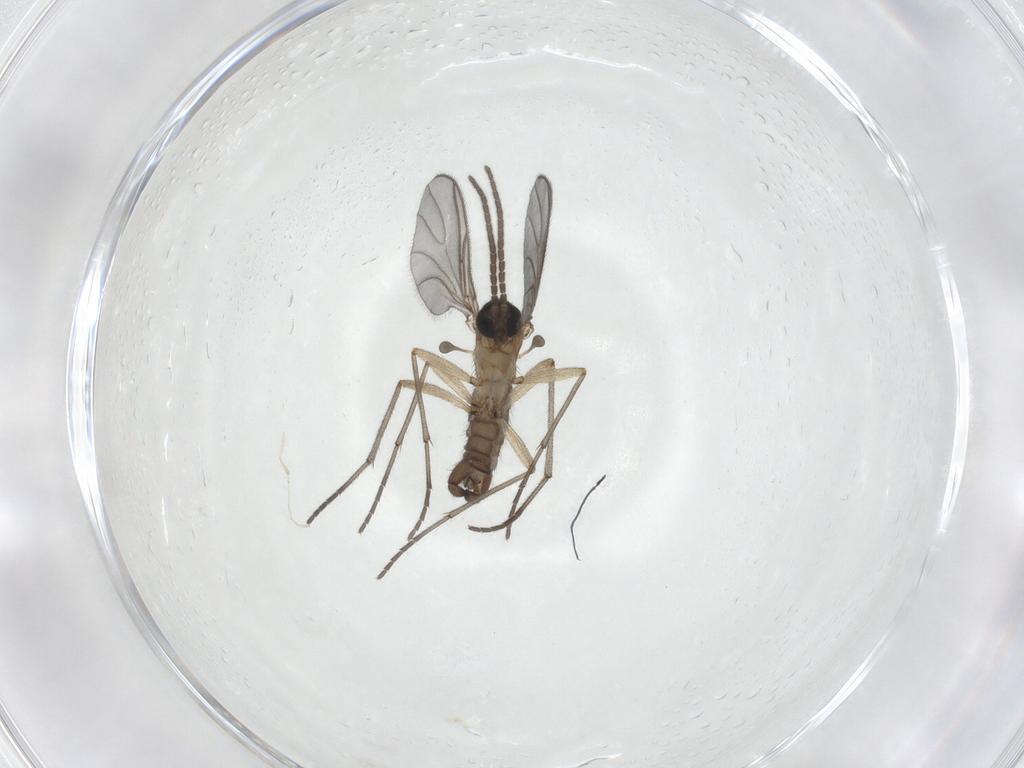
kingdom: Animalia
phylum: Arthropoda
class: Insecta
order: Diptera
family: Sciaridae
